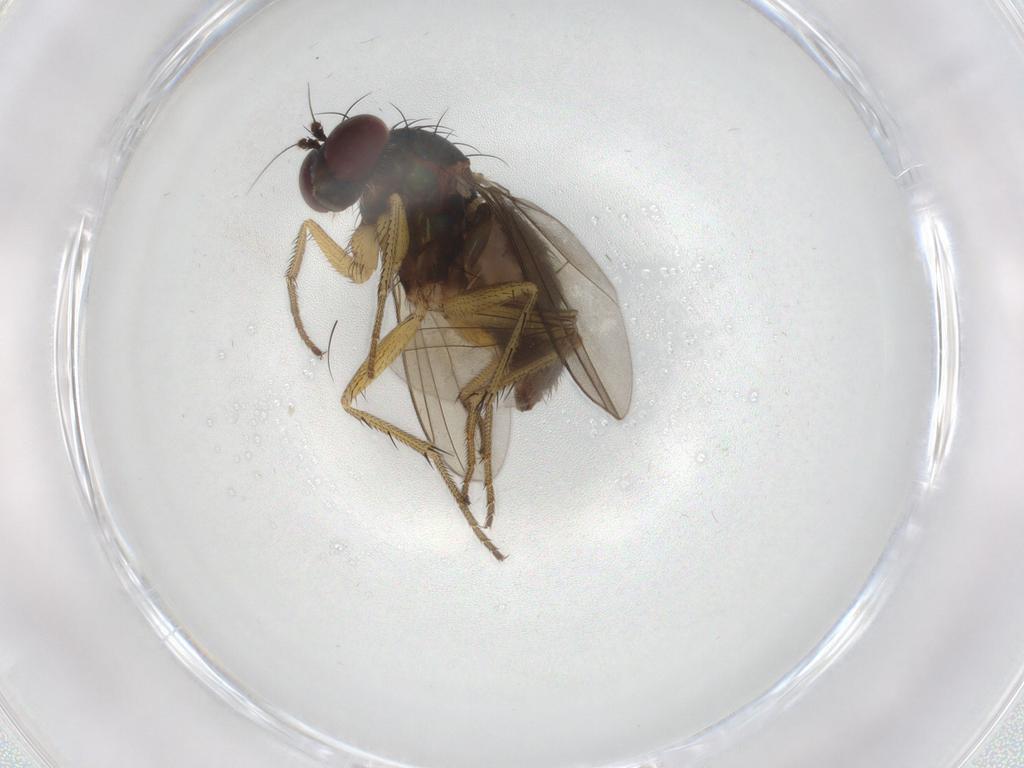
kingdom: Animalia
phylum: Arthropoda
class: Insecta
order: Diptera
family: Dolichopodidae
